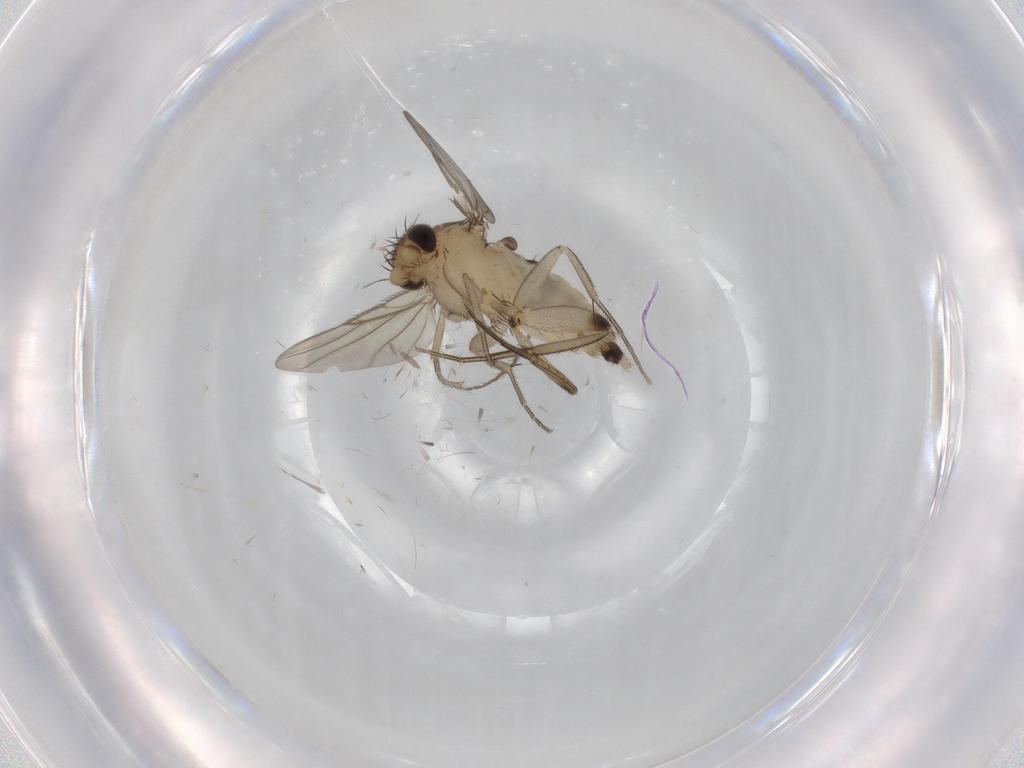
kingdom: Animalia
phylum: Arthropoda
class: Insecta
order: Diptera
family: Phoridae
